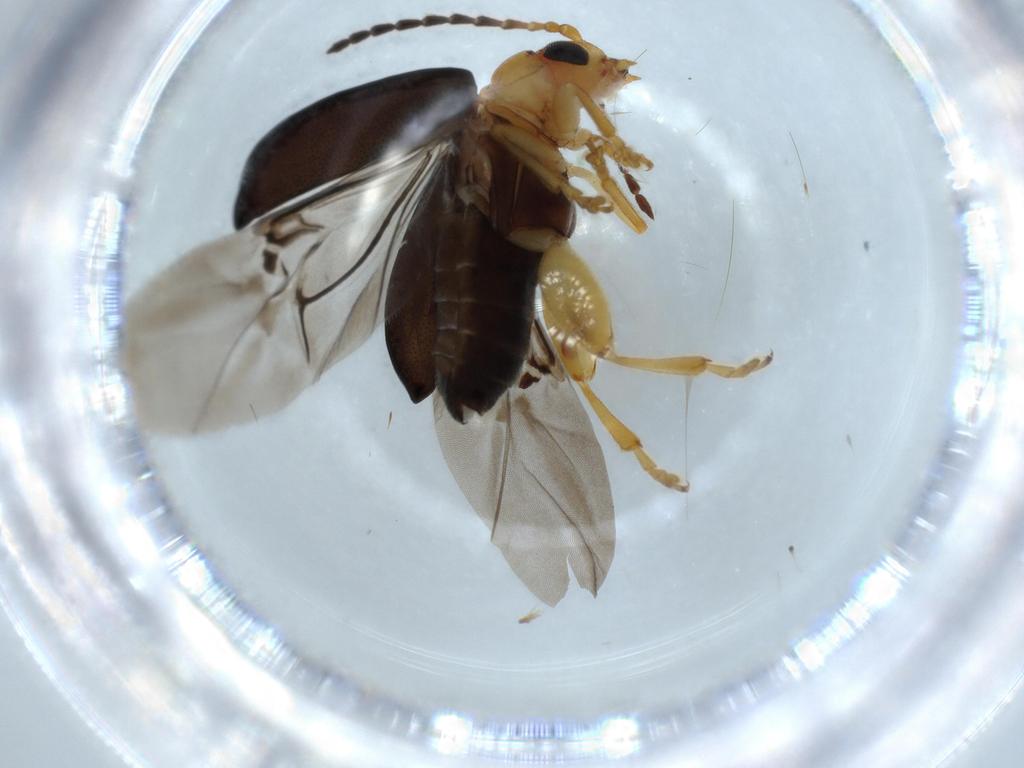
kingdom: Animalia
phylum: Arthropoda
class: Insecta
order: Coleoptera
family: Chrysomelidae
